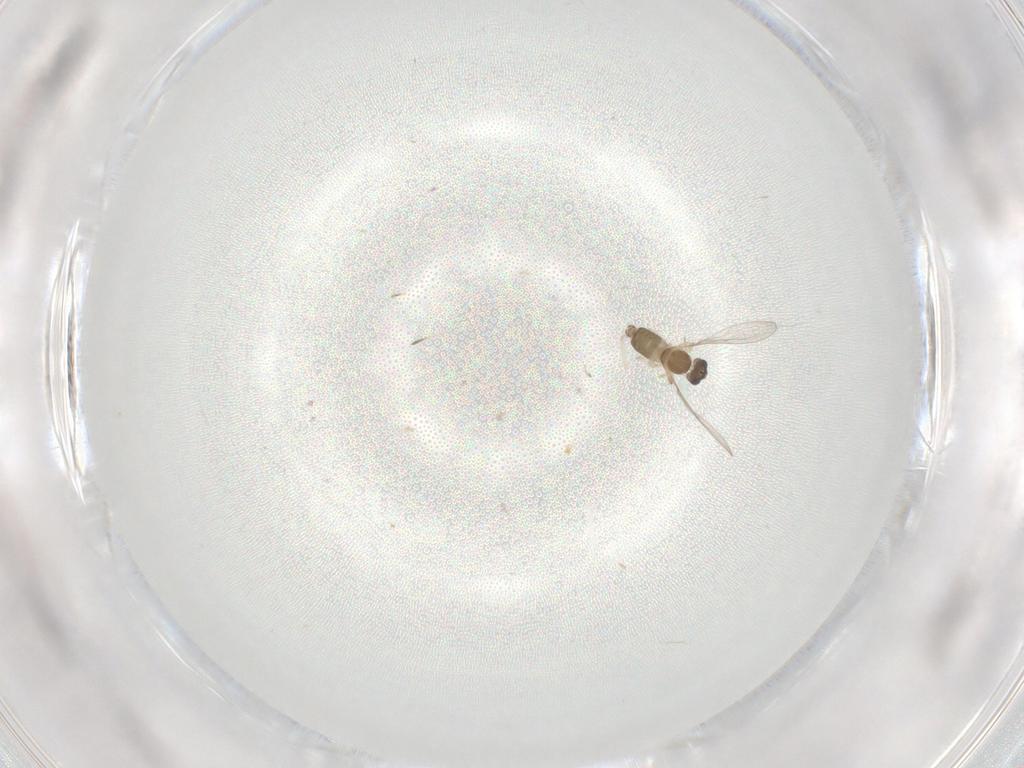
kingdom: Animalia
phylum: Arthropoda
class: Insecta
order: Diptera
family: Cecidomyiidae
